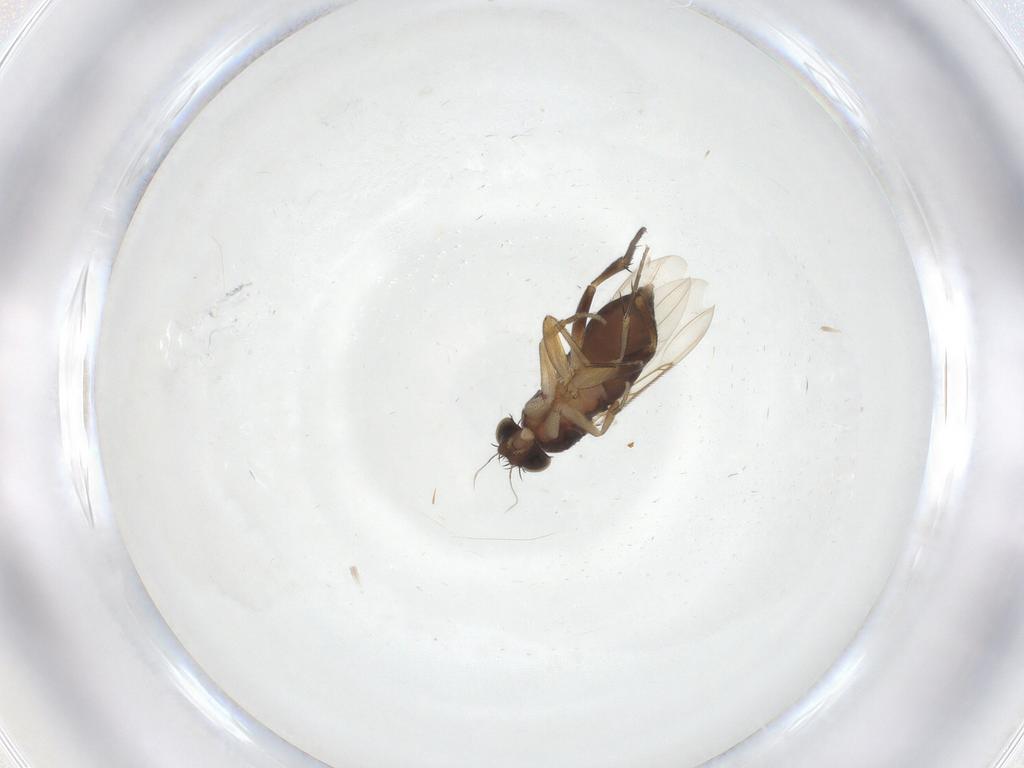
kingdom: Animalia
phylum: Arthropoda
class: Insecta
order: Diptera
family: Phoridae
